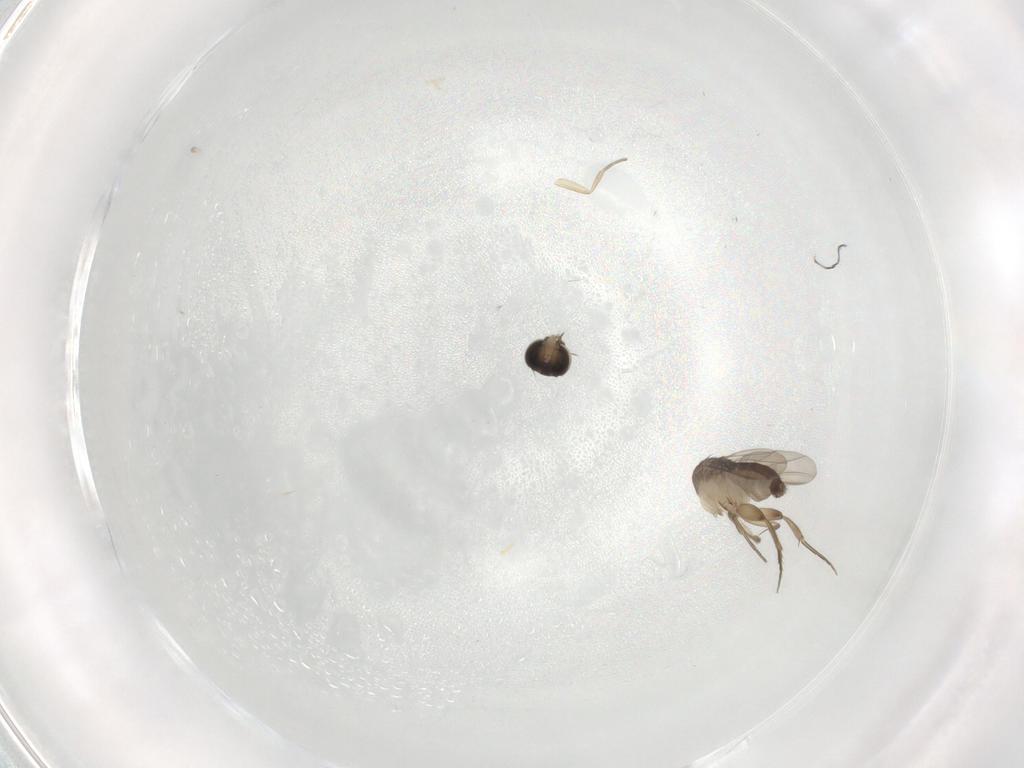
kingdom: Animalia
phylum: Arthropoda
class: Insecta
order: Diptera
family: Phoridae
